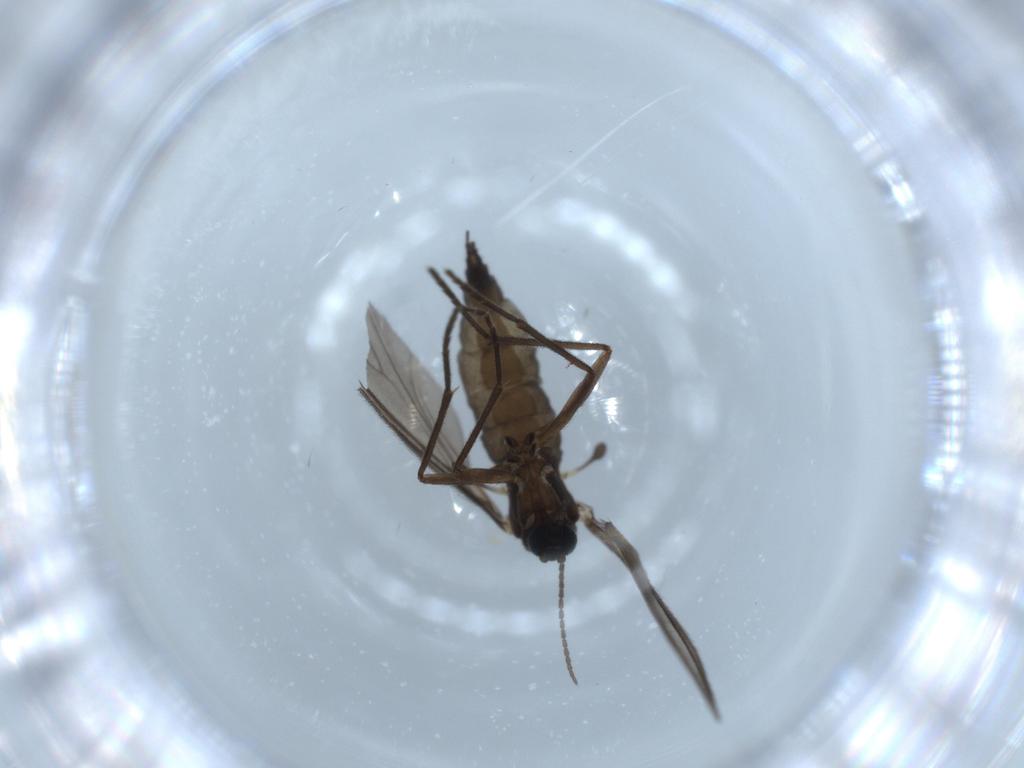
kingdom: Animalia
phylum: Arthropoda
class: Insecta
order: Diptera
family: Sciaridae
